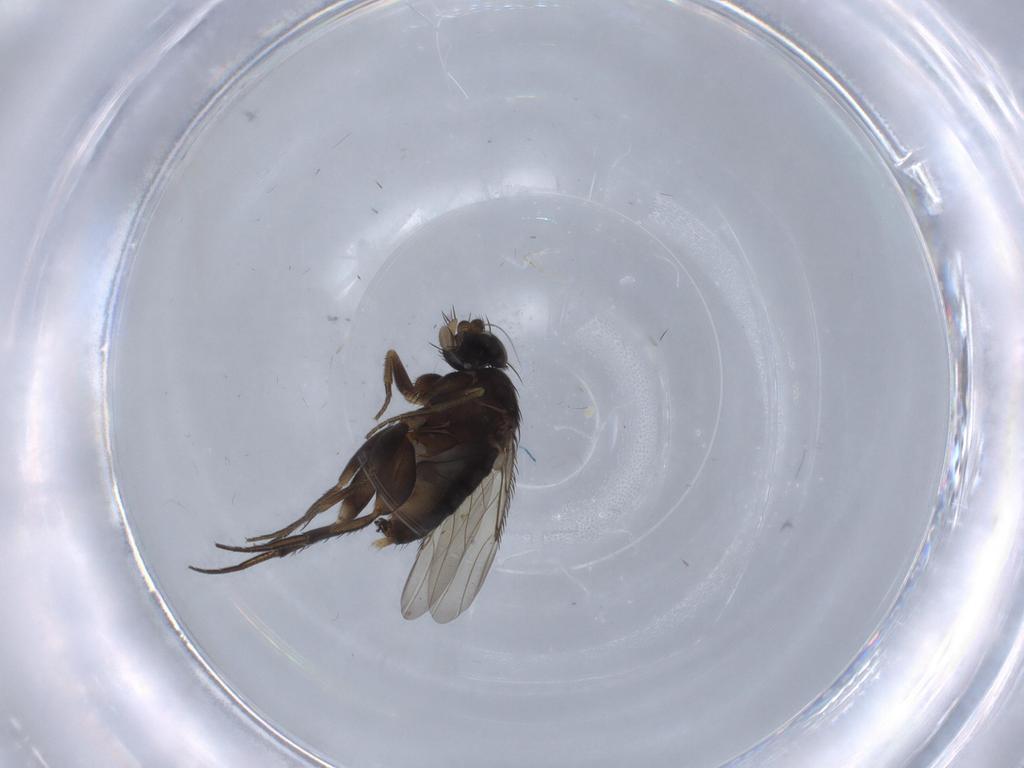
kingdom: Animalia
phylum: Arthropoda
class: Insecta
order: Diptera
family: Phoridae
